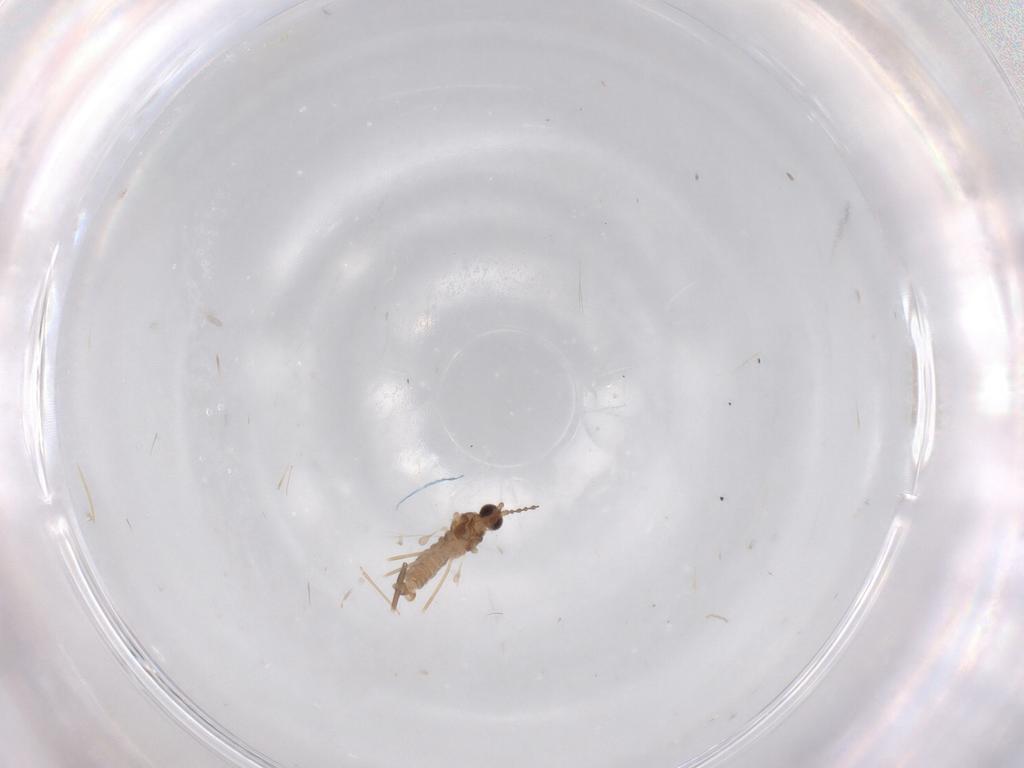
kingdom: Animalia
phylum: Arthropoda
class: Insecta
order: Diptera
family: Cecidomyiidae
